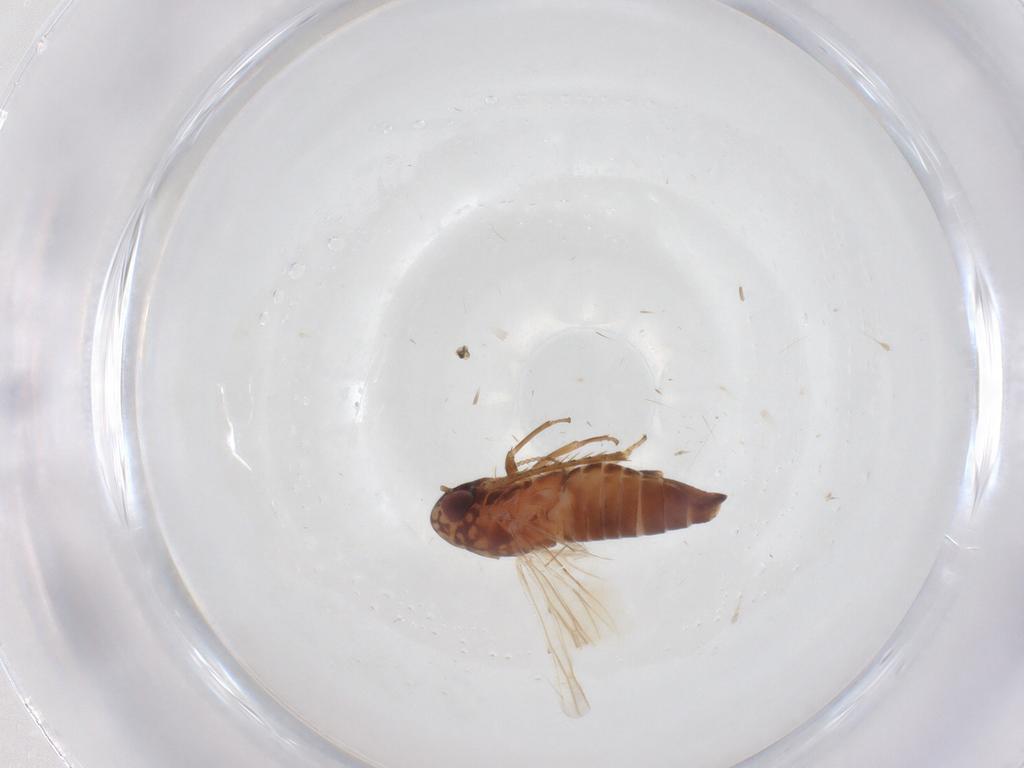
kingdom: Animalia
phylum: Arthropoda
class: Insecta
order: Hemiptera
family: Cicadellidae
